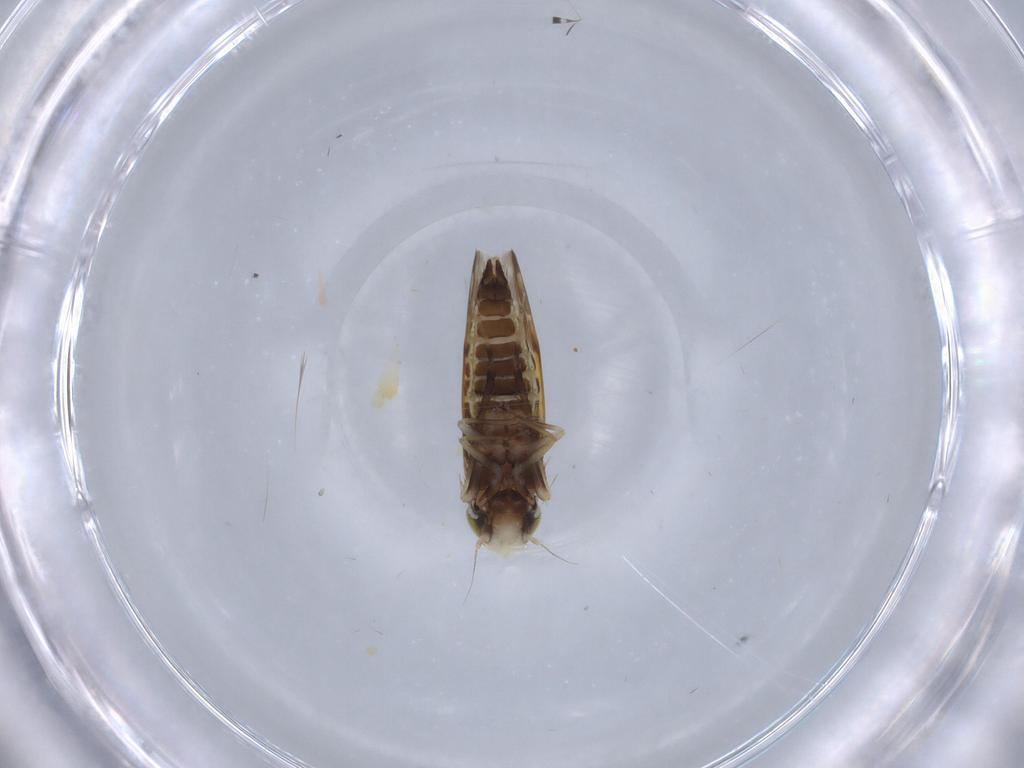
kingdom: Animalia
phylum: Arthropoda
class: Insecta
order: Hemiptera
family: Cicadellidae
